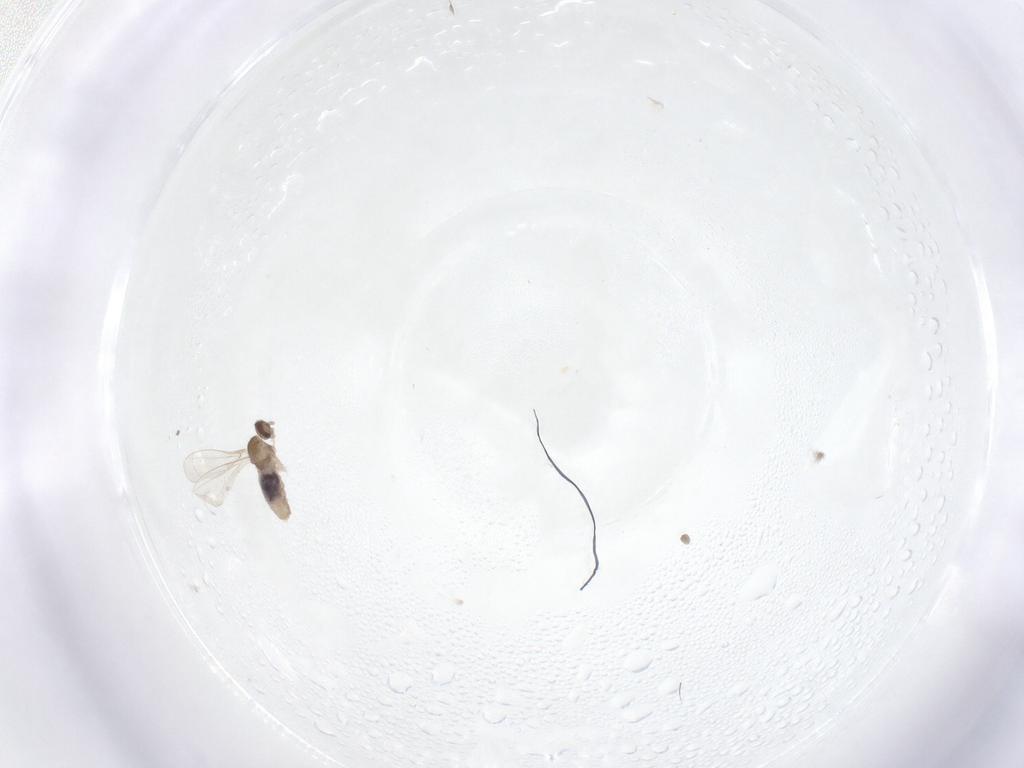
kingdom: Animalia
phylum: Arthropoda
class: Insecta
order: Diptera
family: Cecidomyiidae
